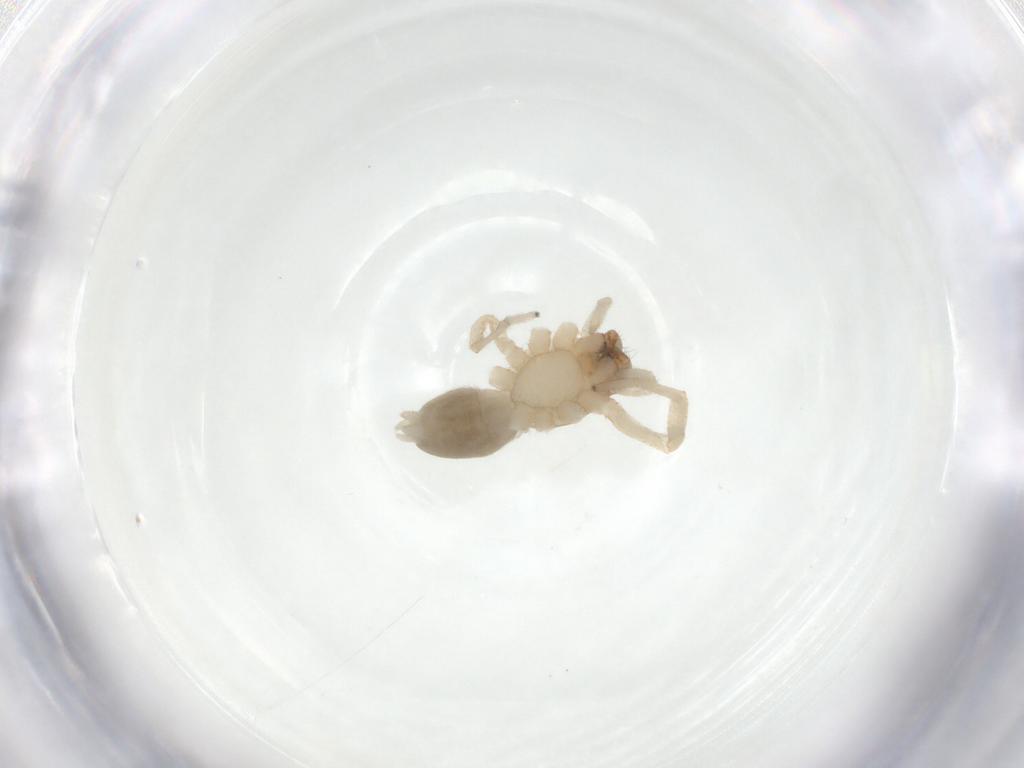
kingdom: Animalia
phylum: Arthropoda
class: Arachnida
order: Araneae
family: Trachelidae
